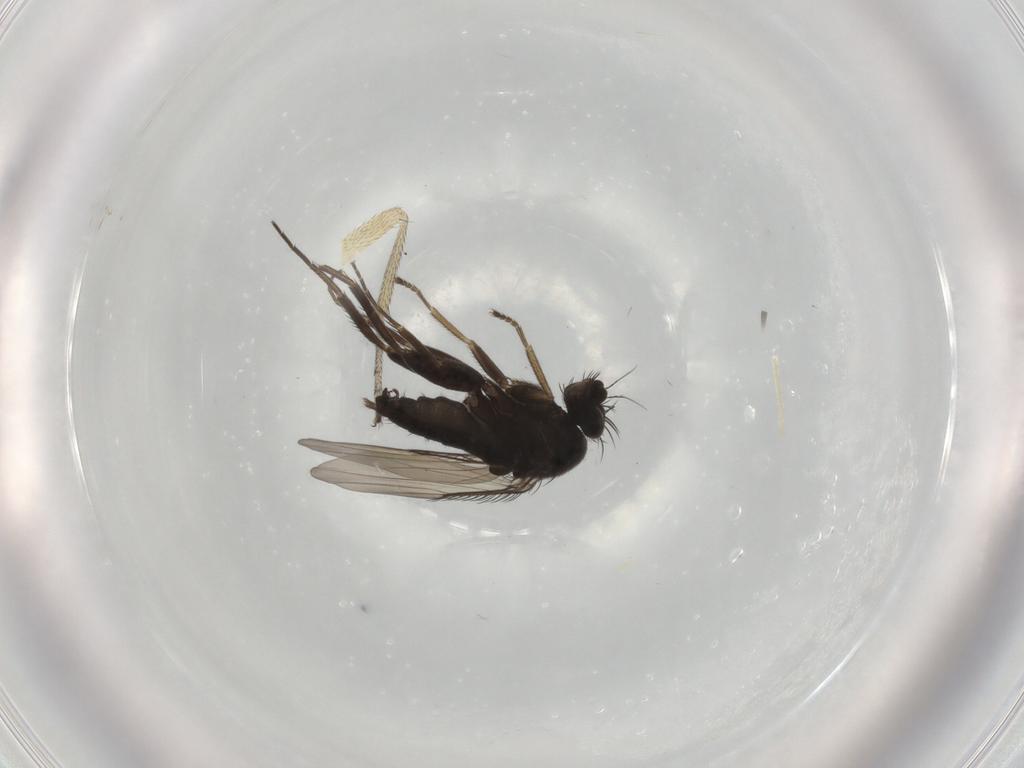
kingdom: Animalia
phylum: Arthropoda
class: Insecta
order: Diptera
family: Phoridae
